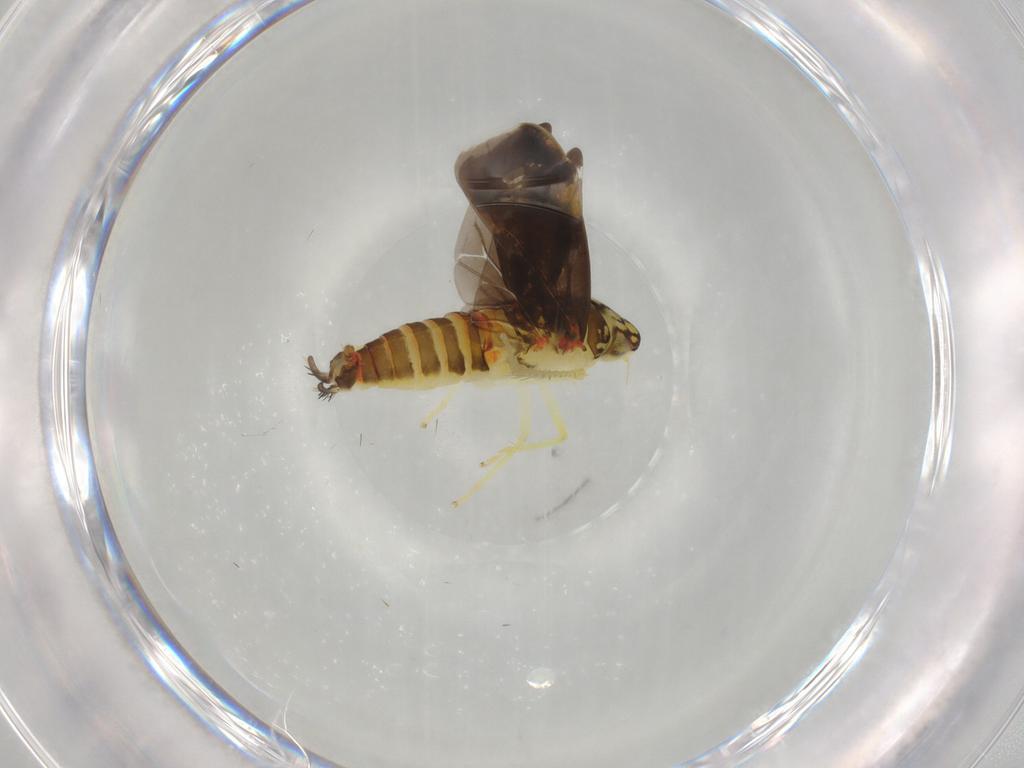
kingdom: Animalia
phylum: Arthropoda
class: Insecta
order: Hemiptera
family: Cicadellidae
